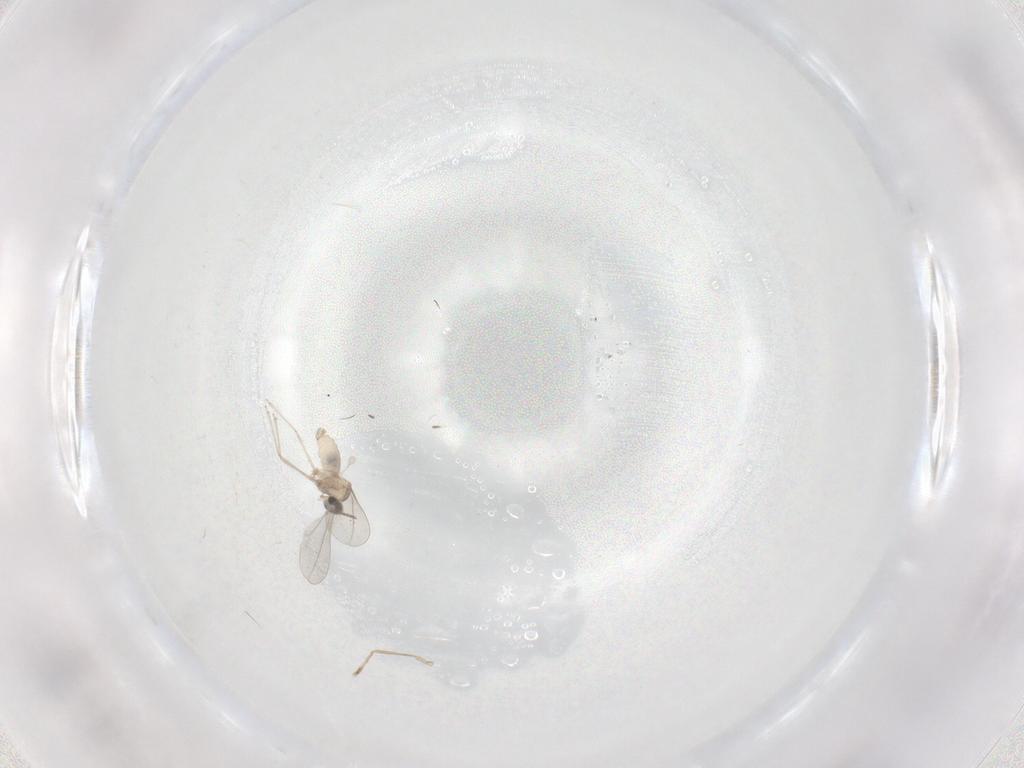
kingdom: Animalia
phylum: Arthropoda
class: Insecta
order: Diptera
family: Cecidomyiidae
